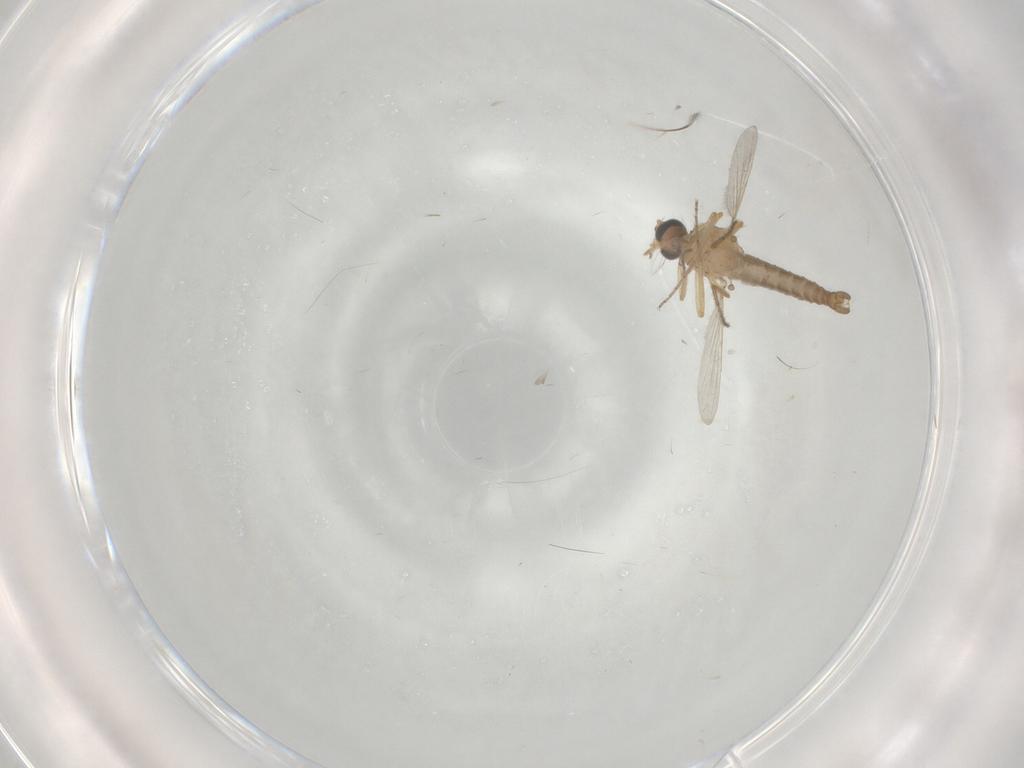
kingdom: Animalia
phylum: Arthropoda
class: Insecta
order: Diptera
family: Ceratopogonidae
